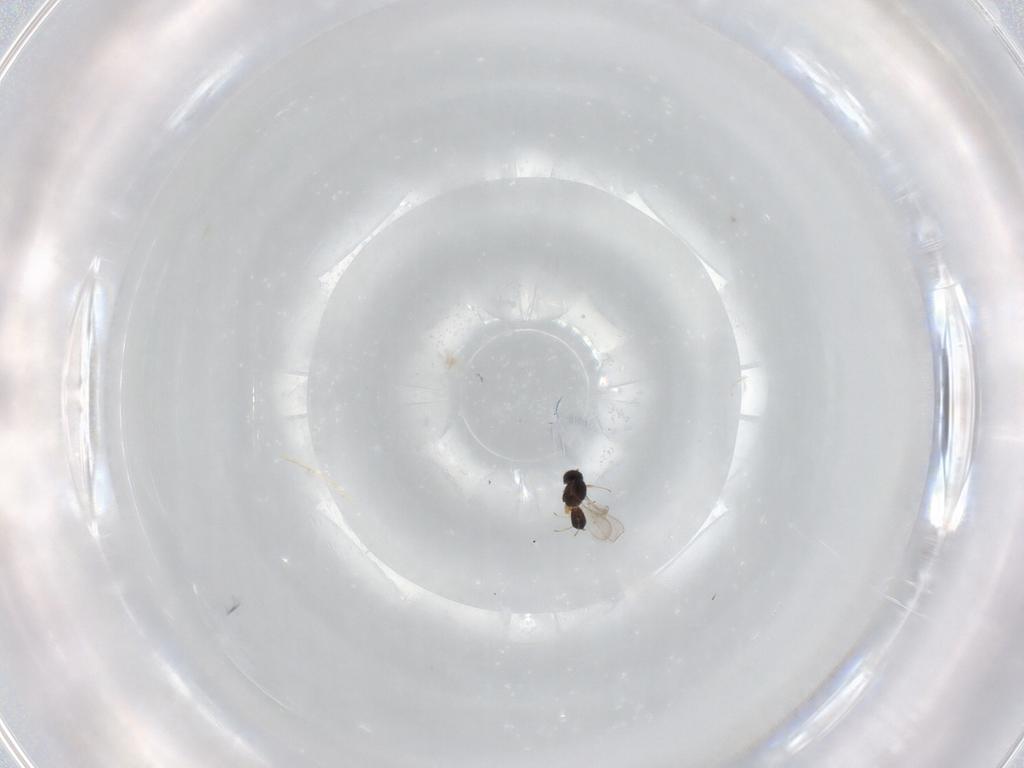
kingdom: Animalia
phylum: Arthropoda
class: Insecta
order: Hymenoptera
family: Scelionidae
